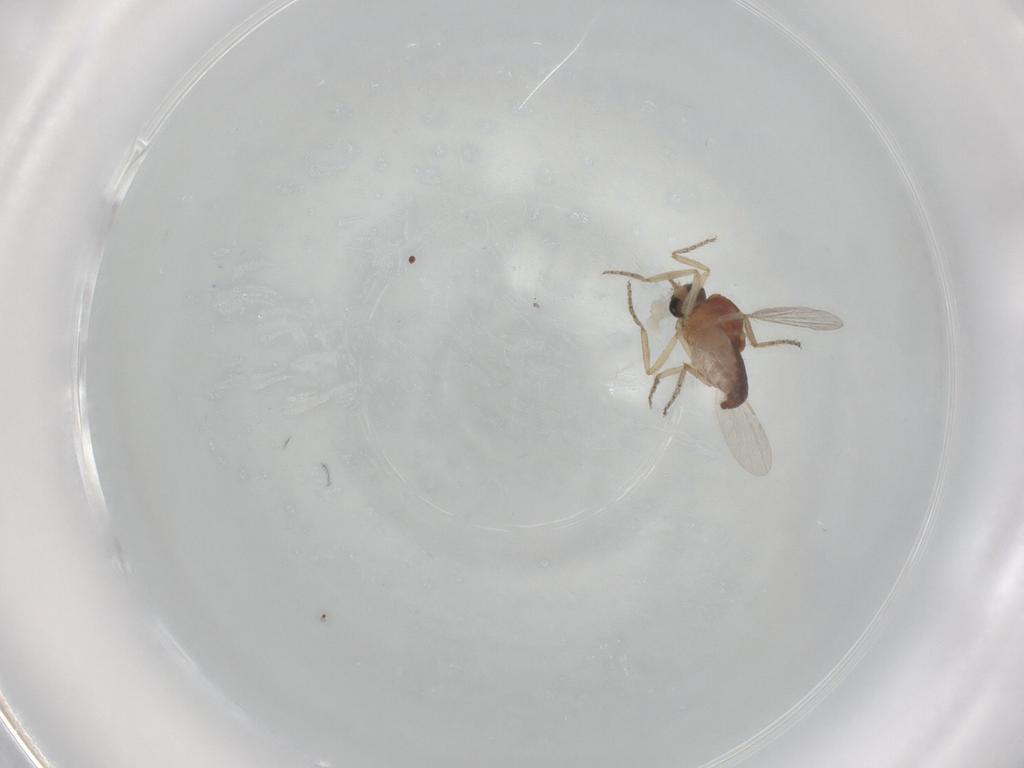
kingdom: Animalia
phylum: Arthropoda
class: Insecta
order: Diptera
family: Ceratopogonidae
